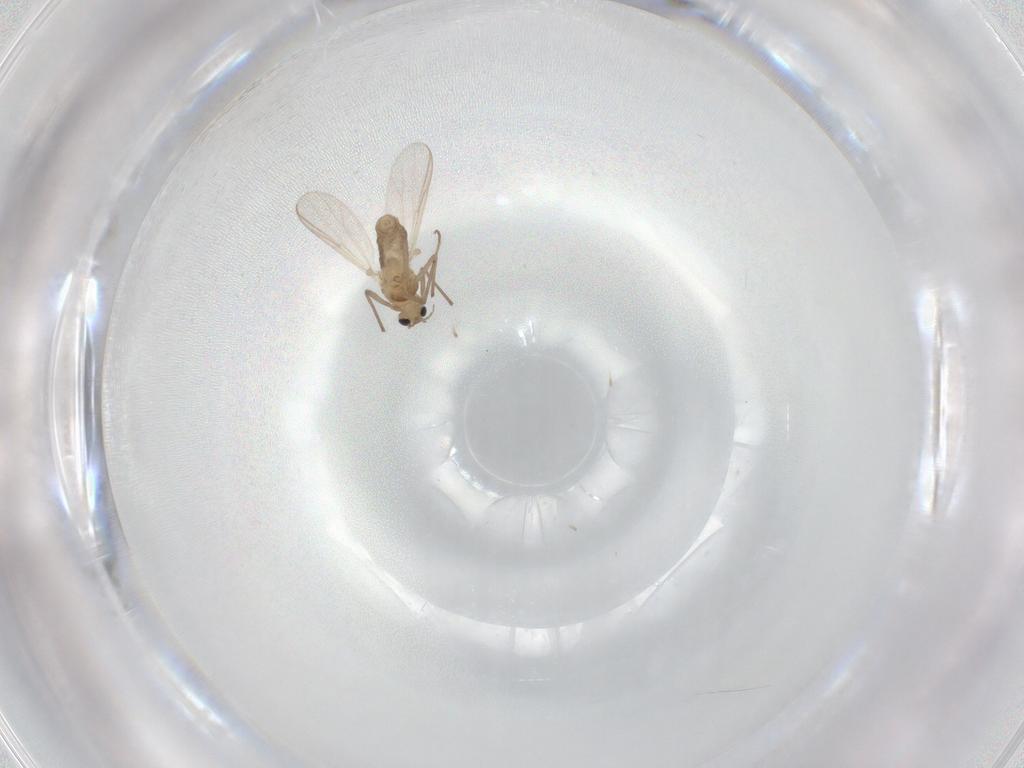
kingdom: Animalia
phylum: Arthropoda
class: Insecta
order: Diptera
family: Chironomidae
